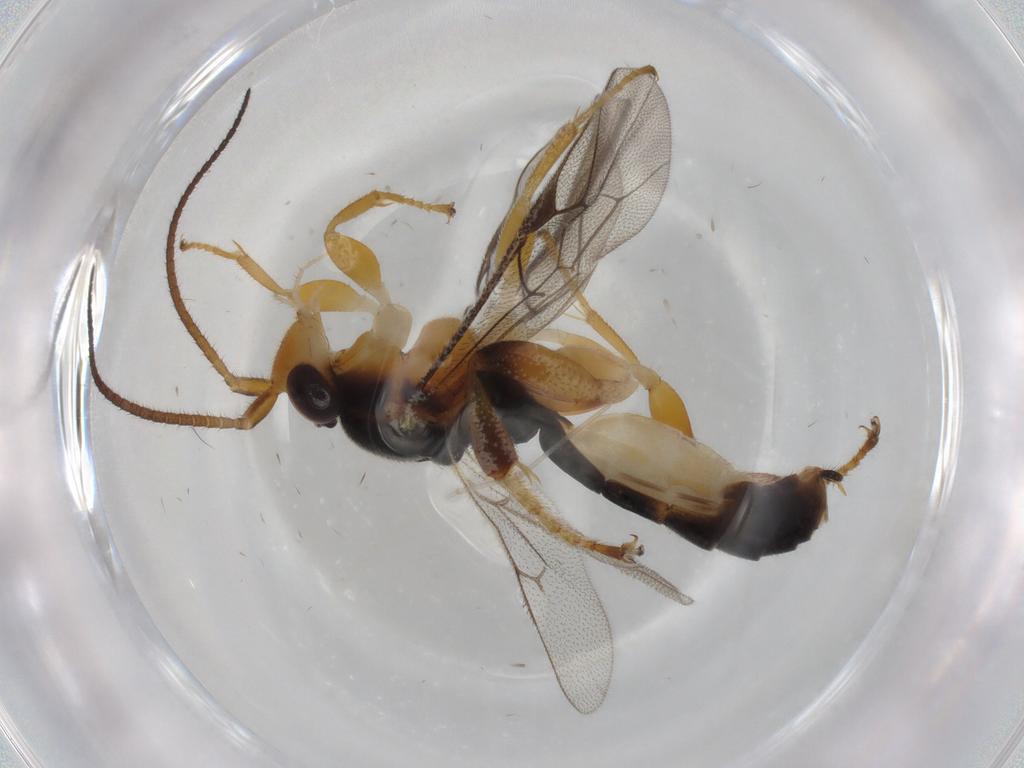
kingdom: Animalia
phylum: Arthropoda
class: Insecta
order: Hymenoptera
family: Ichneumonidae
